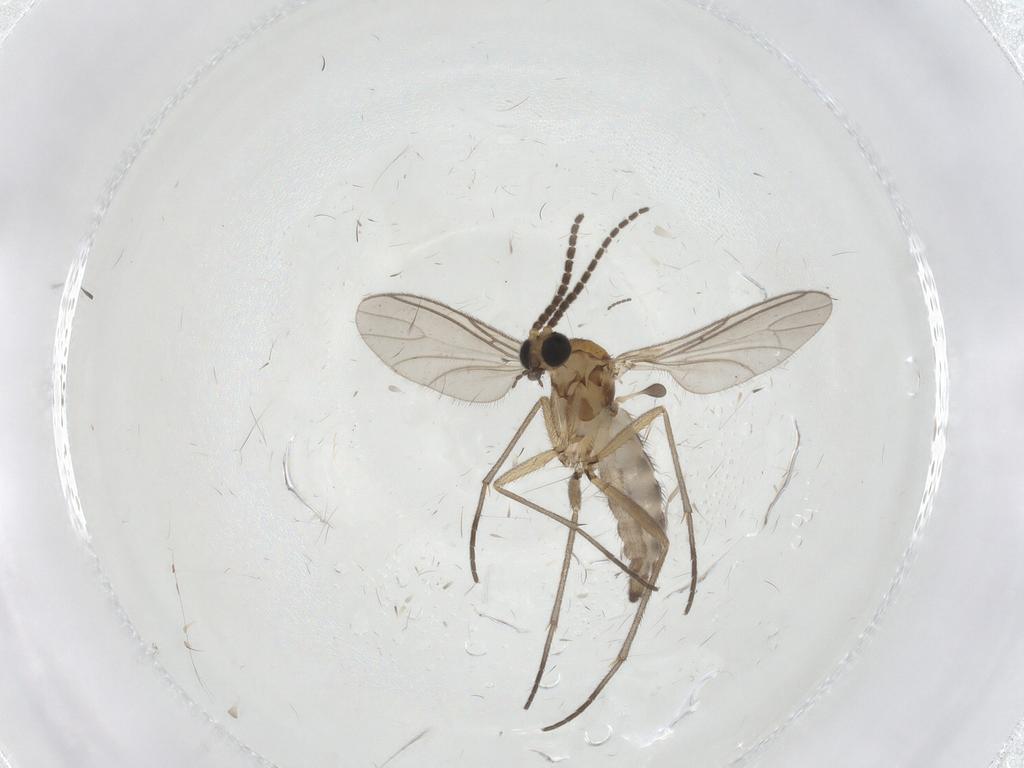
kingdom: Animalia
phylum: Arthropoda
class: Insecta
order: Diptera
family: Sciaridae
